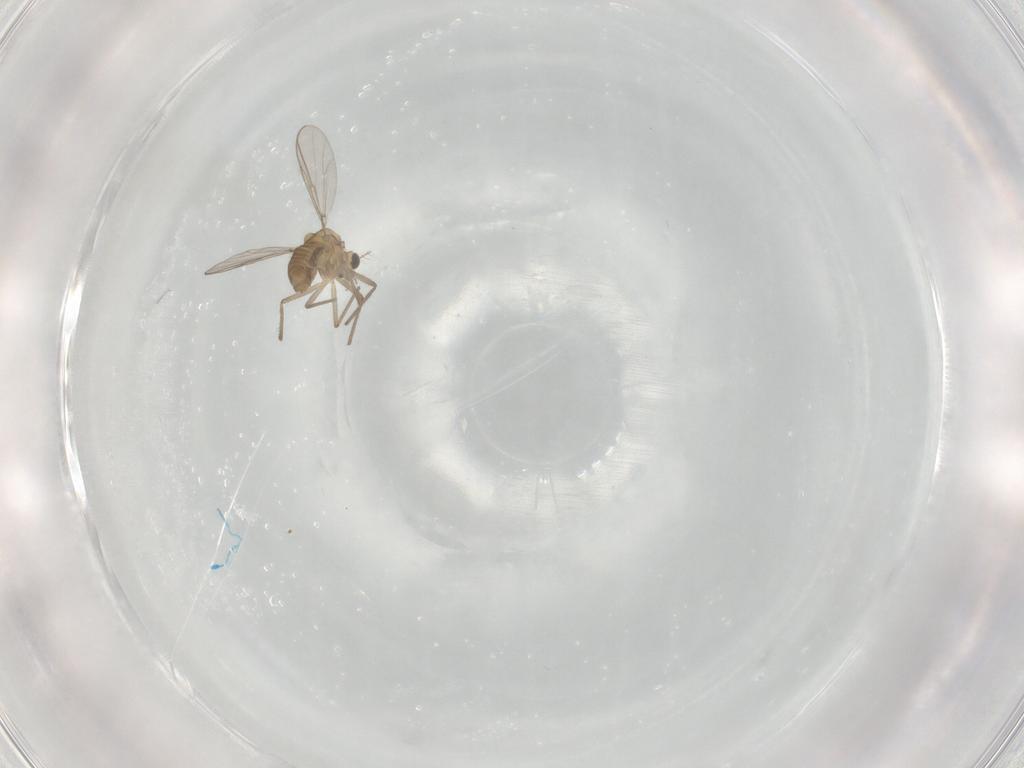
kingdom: Animalia
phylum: Arthropoda
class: Insecta
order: Diptera
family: Chironomidae
